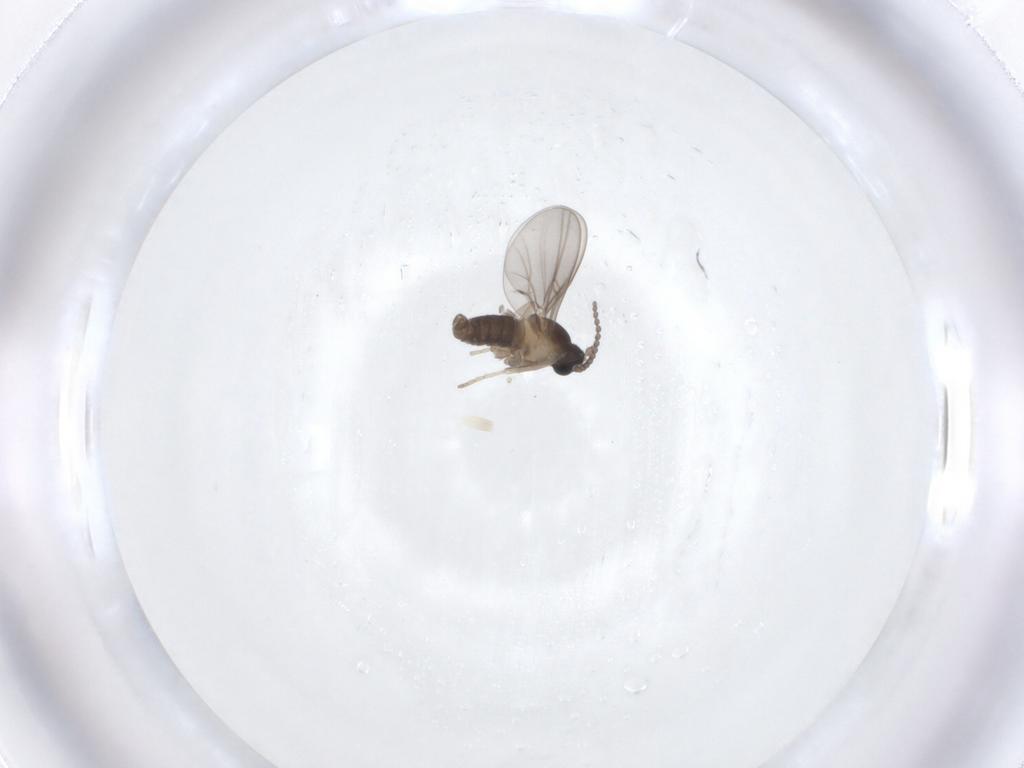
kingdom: Animalia
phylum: Arthropoda
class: Insecta
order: Diptera
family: Cecidomyiidae
